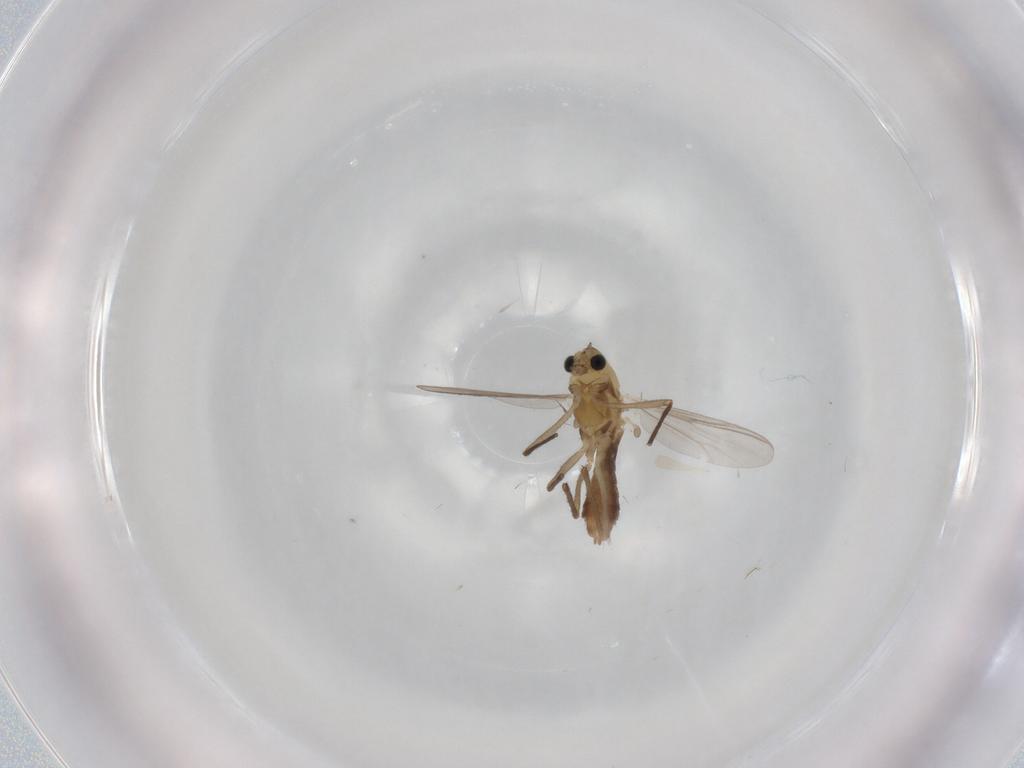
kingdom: Animalia
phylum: Arthropoda
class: Insecta
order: Diptera
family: Chironomidae
